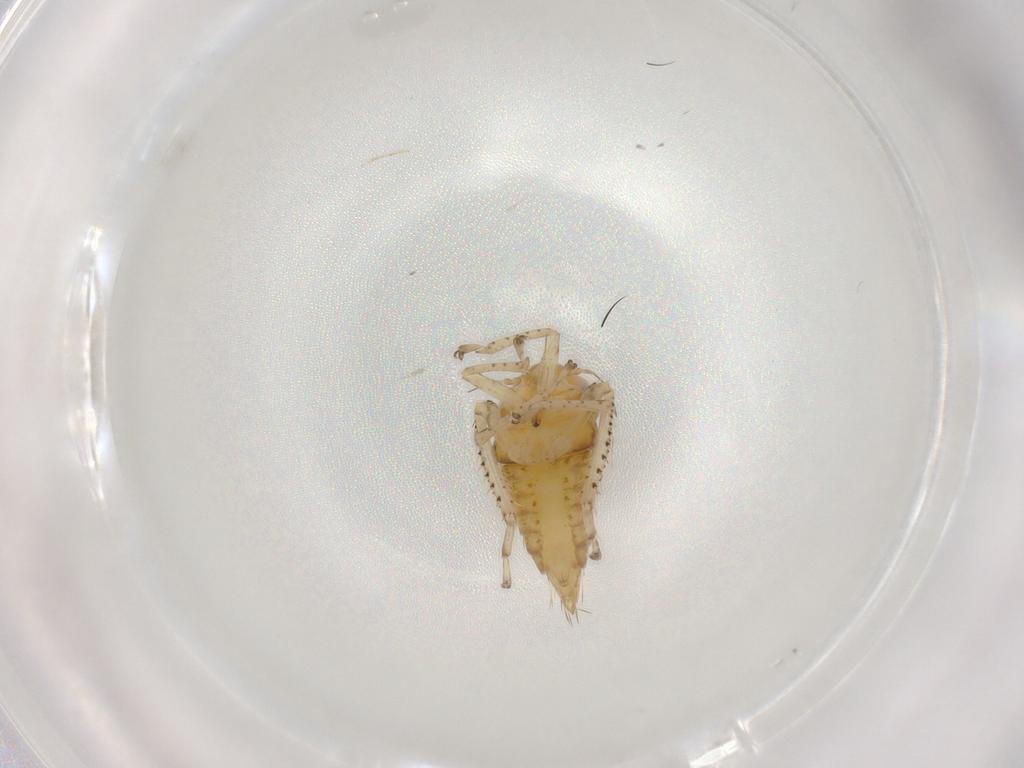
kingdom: Animalia
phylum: Arthropoda
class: Insecta
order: Hemiptera
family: Cicadellidae
